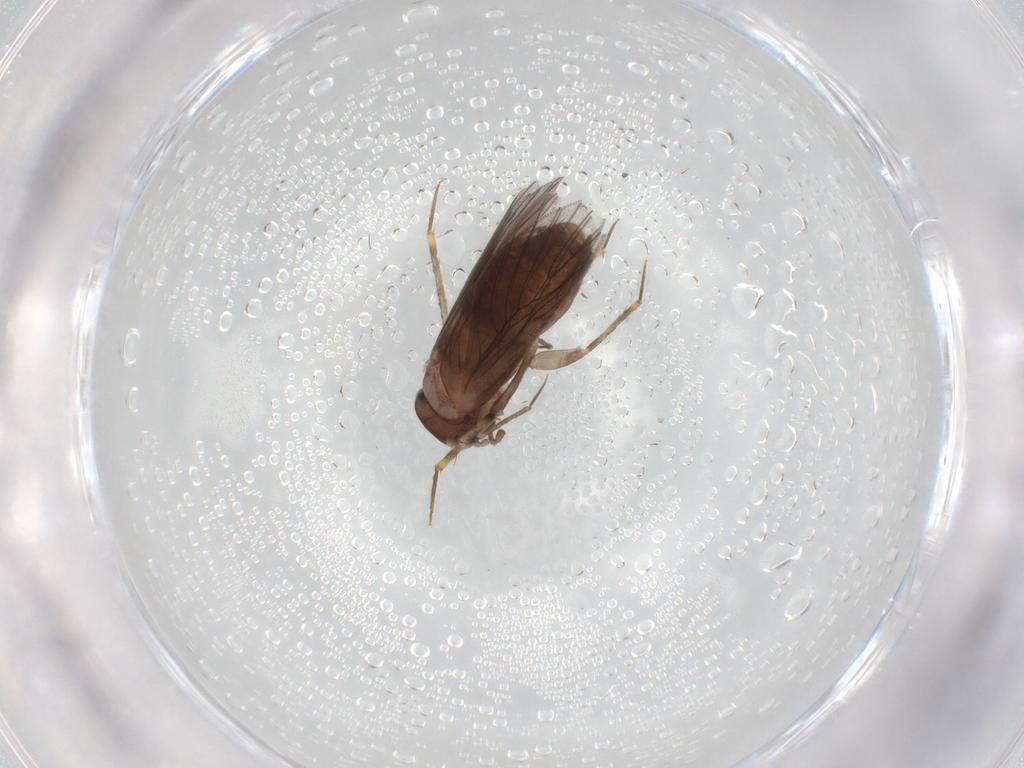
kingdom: Animalia
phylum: Arthropoda
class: Insecta
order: Psocodea
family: Lepidopsocidae
